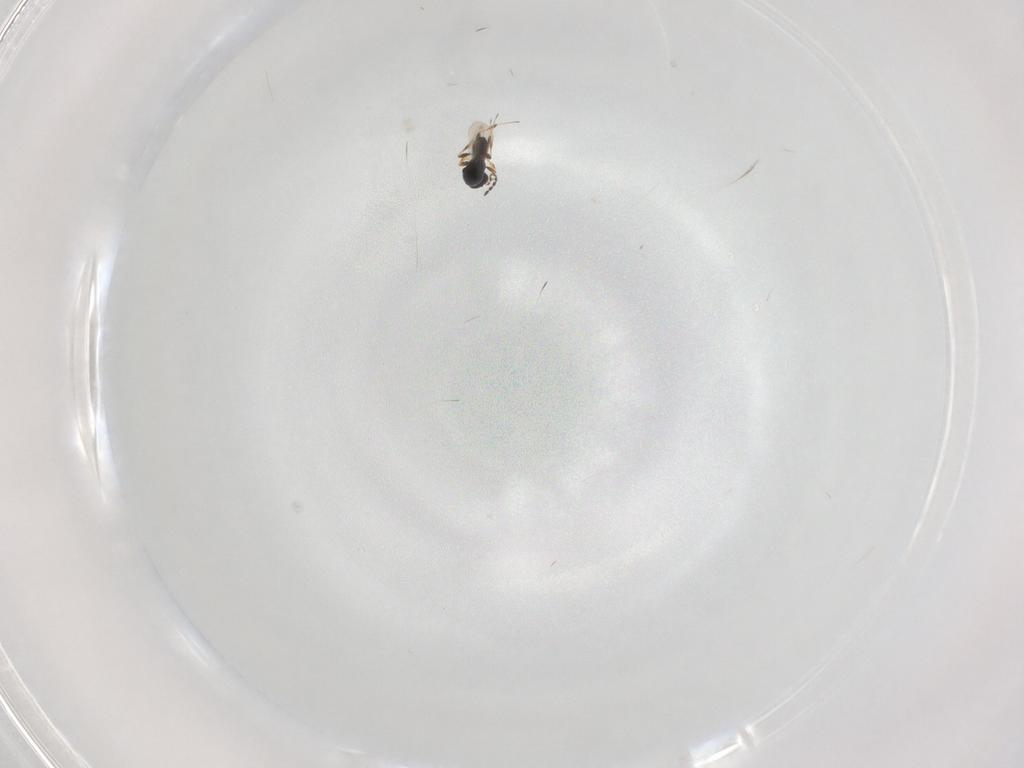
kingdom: Animalia
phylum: Arthropoda
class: Insecta
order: Hymenoptera
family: Platygastridae
